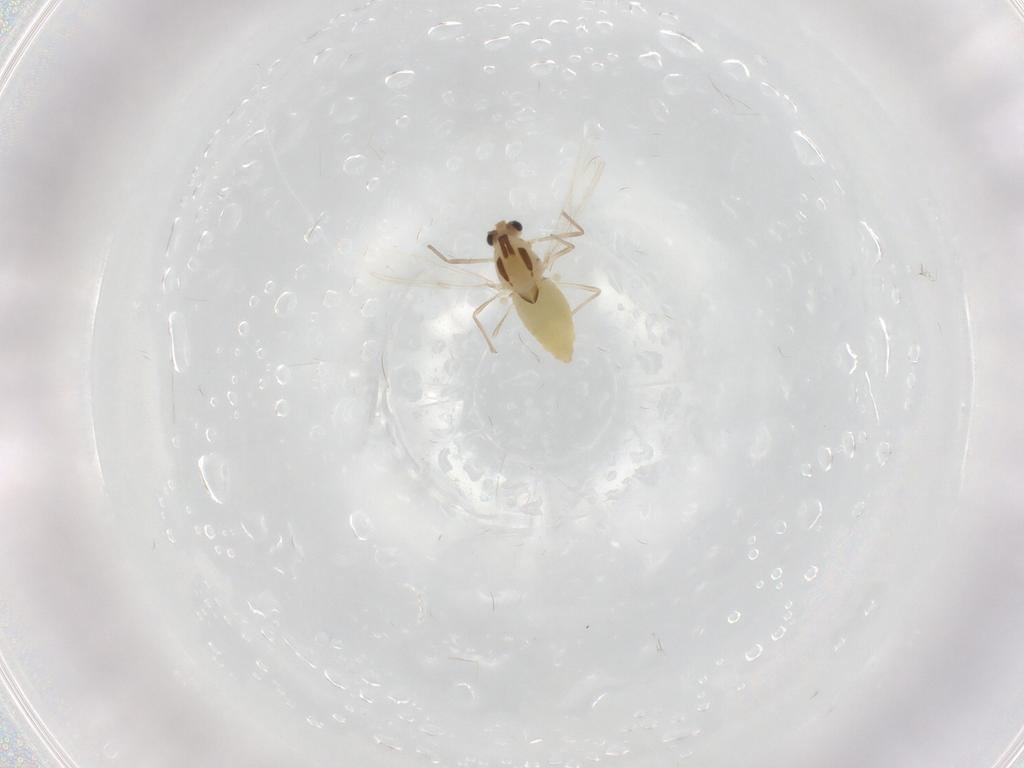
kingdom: Animalia
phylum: Arthropoda
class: Insecta
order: Diptera
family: Chironomidae
